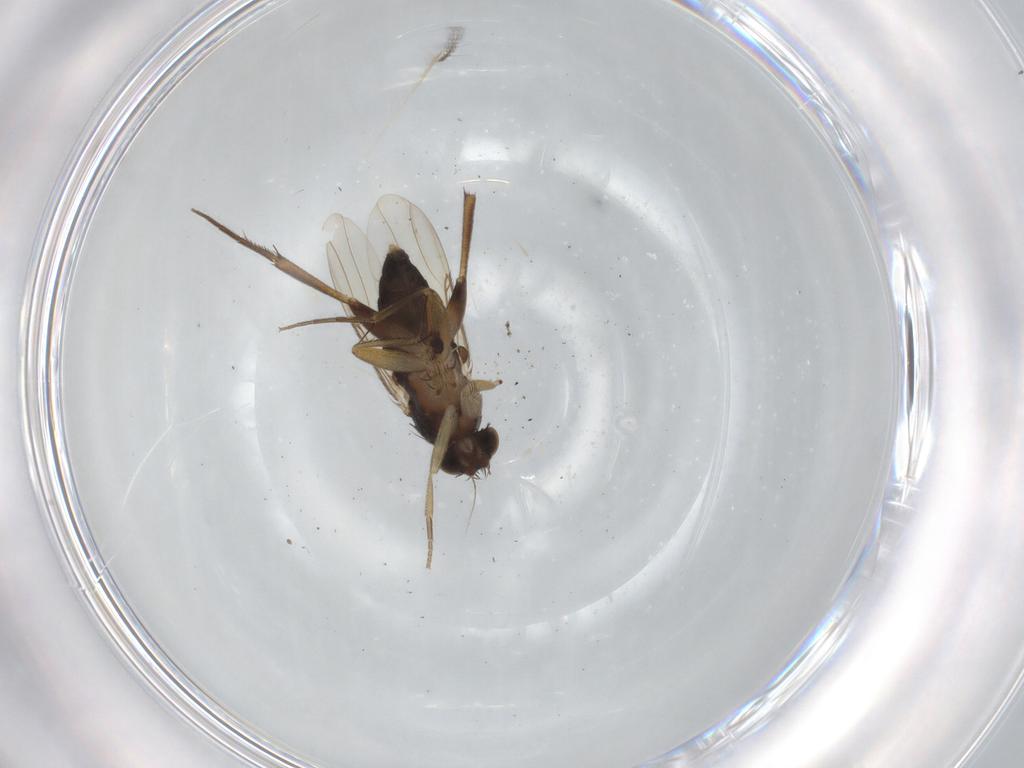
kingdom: Animalia
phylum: Arthropoda
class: Insecta
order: Diptera
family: Phoridae
